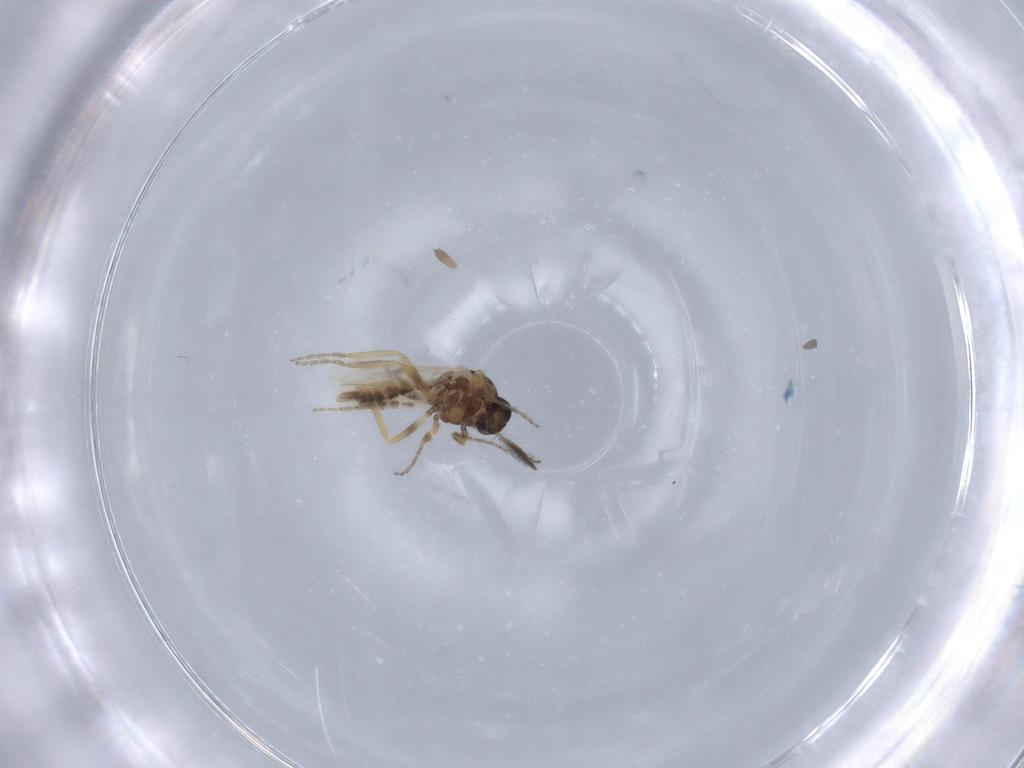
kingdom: Animalia
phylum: Arthropoda
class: Insecta
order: Diptera
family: Ceratopogonidae
